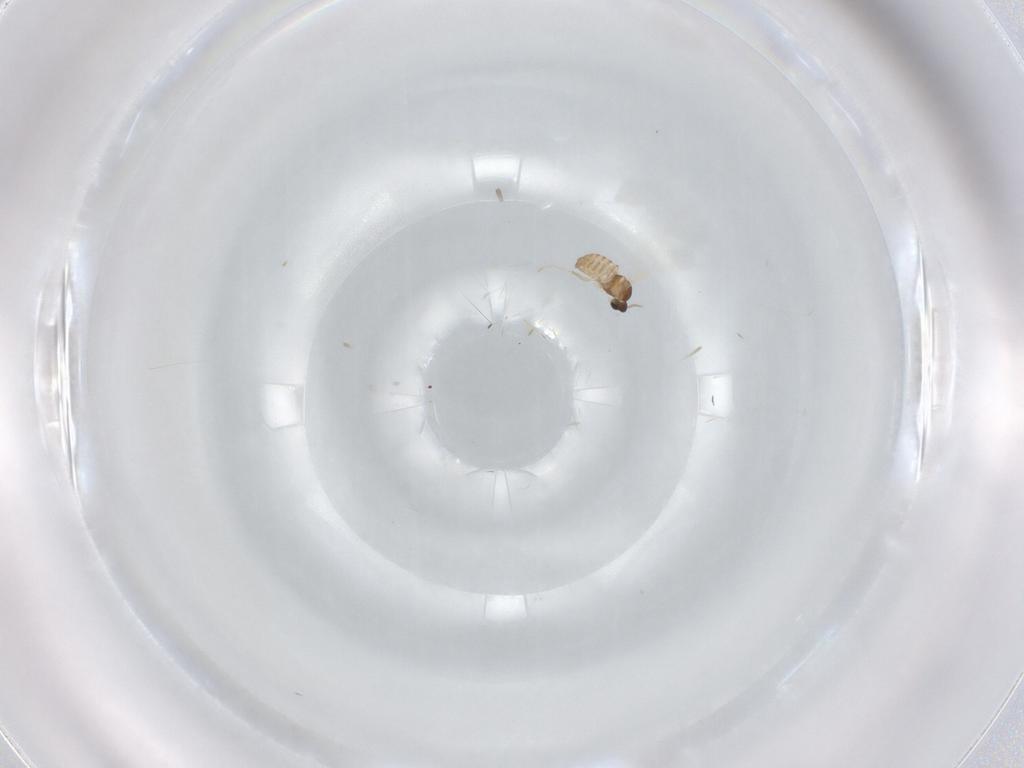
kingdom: Animalia
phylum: Arthropoda
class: Insecta
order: Diptera
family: Cecidomyiidae
